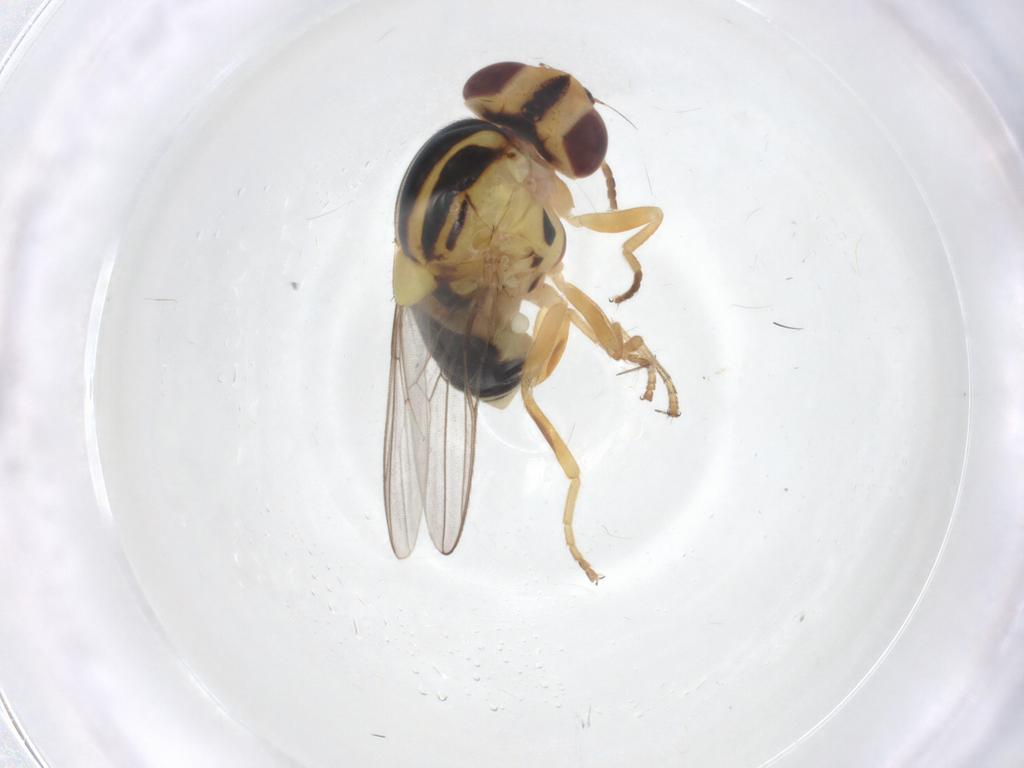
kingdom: Animalia
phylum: Arthropoda
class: Insecta
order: Diptera
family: Chloropidae
